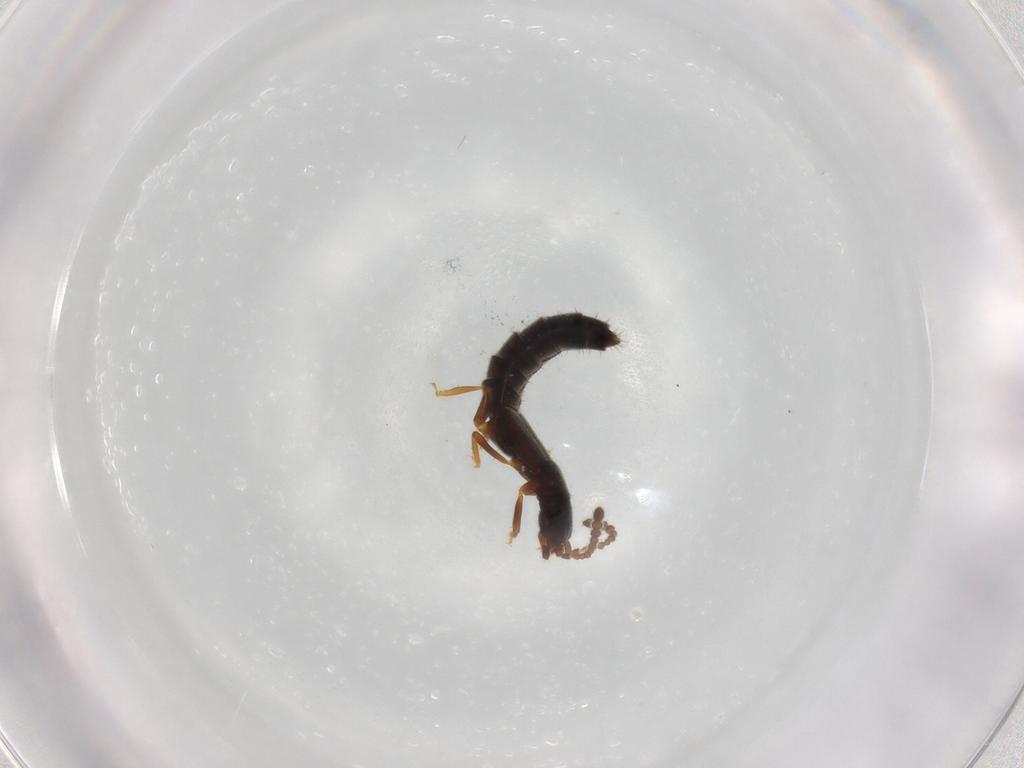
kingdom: Animalia
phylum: Arthropoda
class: Insecta
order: Coleoptera
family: Staphylinidae
